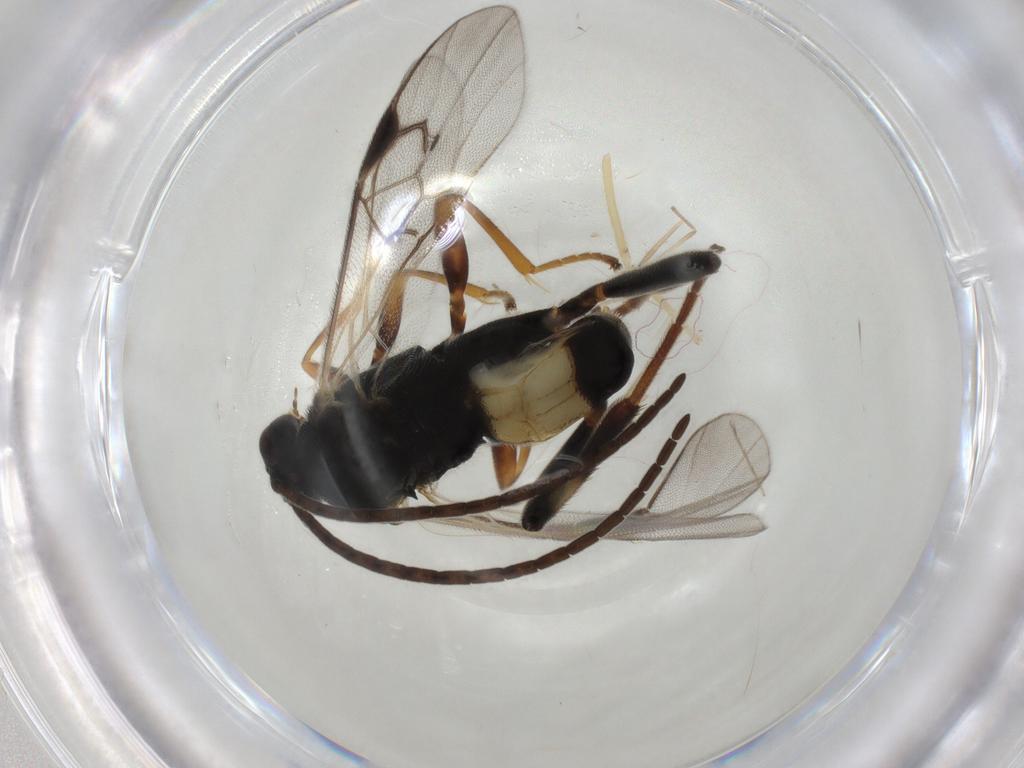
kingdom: Animalia
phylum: Arthropoda
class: Insecta
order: Hymenoptera
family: Braconidae
